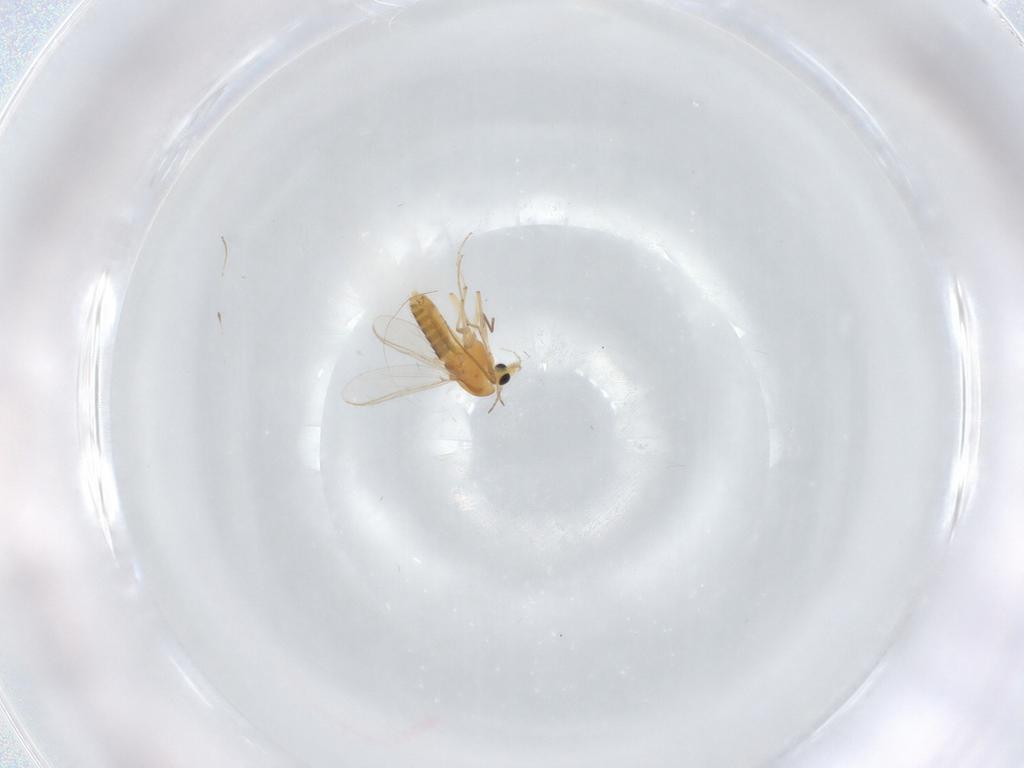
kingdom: Animalia
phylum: Arthropoda
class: Insecta
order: Diptera
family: Chironomidae
